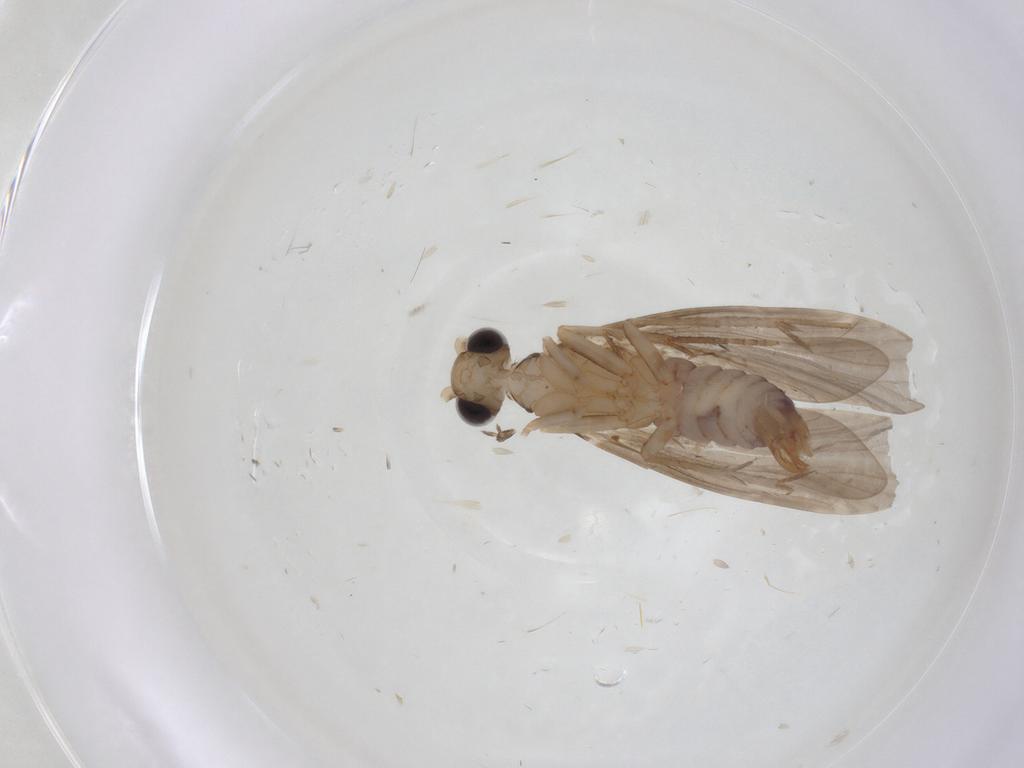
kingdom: Animalia
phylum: Arthropoda
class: Insecta
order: Trichoptera
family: Ecnomidae
